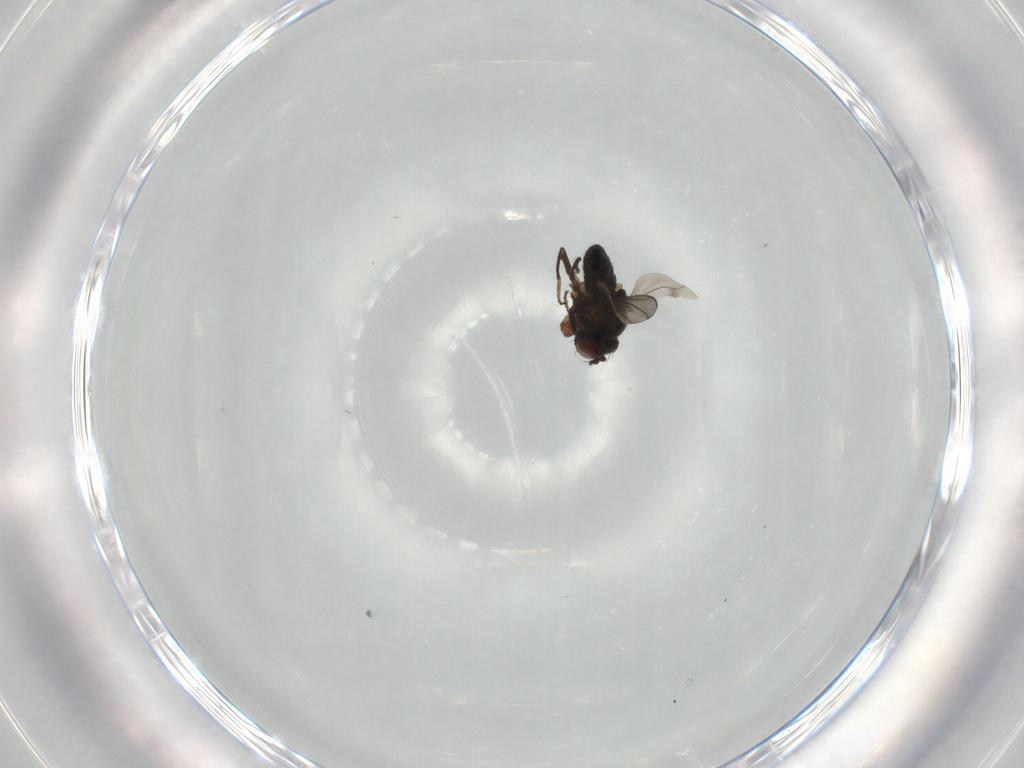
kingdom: Animalia
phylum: Arthropoda
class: Insecta
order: Diptera
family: Ephydridae
